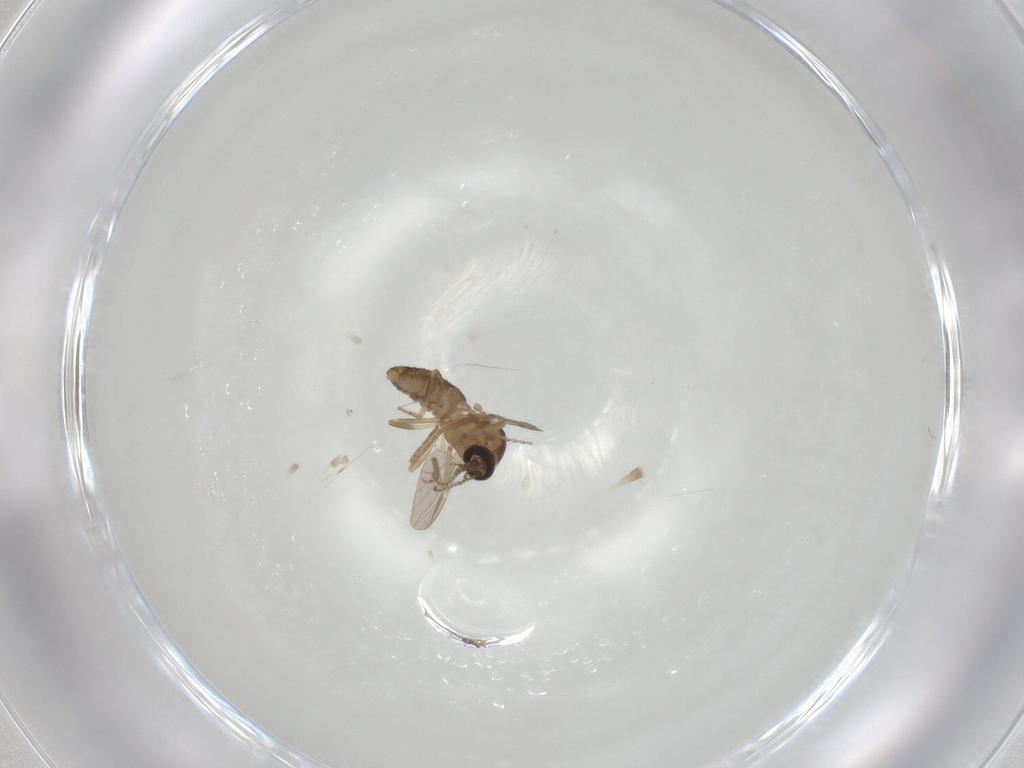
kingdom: Animalia
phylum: Arthropoda
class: Insecta
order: Diptera
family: Ceratopogonidae
